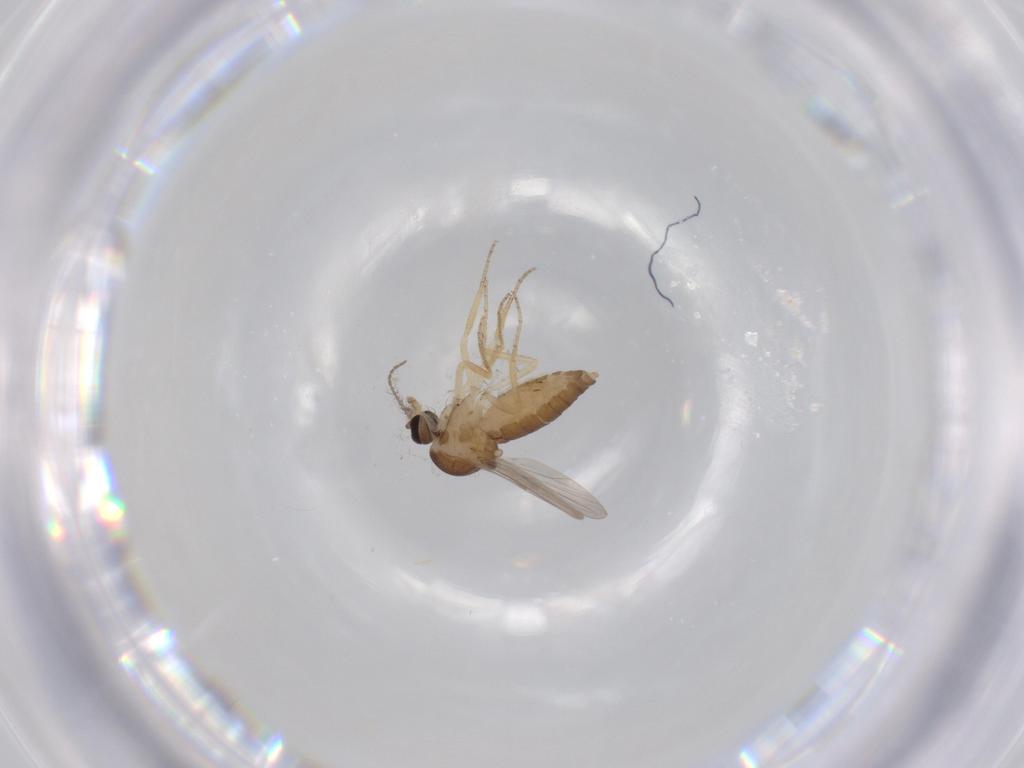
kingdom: Animalia
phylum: Arthropoda
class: Insecta
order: Diptera
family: Ceratopogonidae
